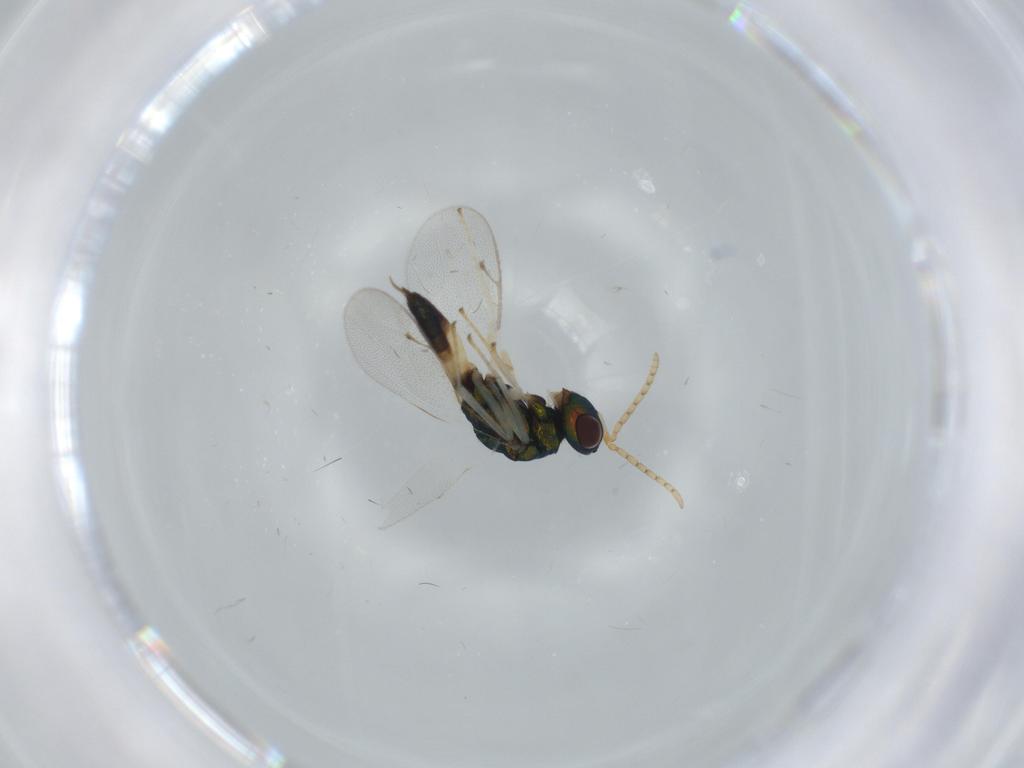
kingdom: Animalia
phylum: Arthropoda
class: Insecta
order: Hymenoptera
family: Pteromalidae
